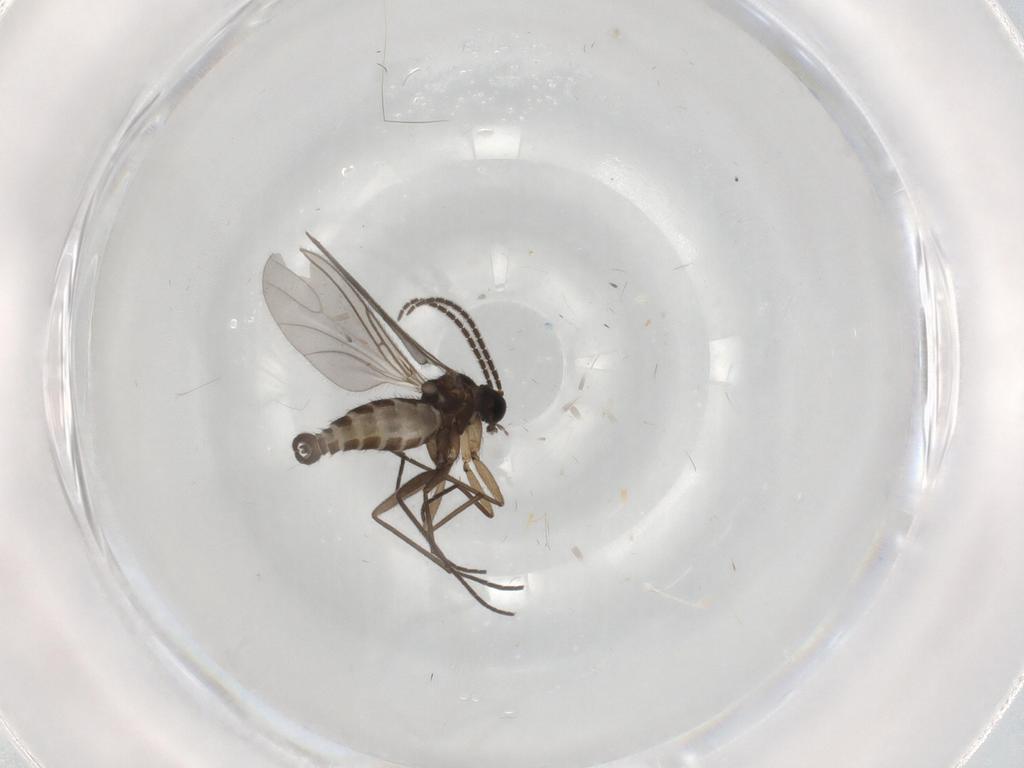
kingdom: Animalia
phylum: Arthropoda
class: Insecta
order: Diptera
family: Sciaridae
